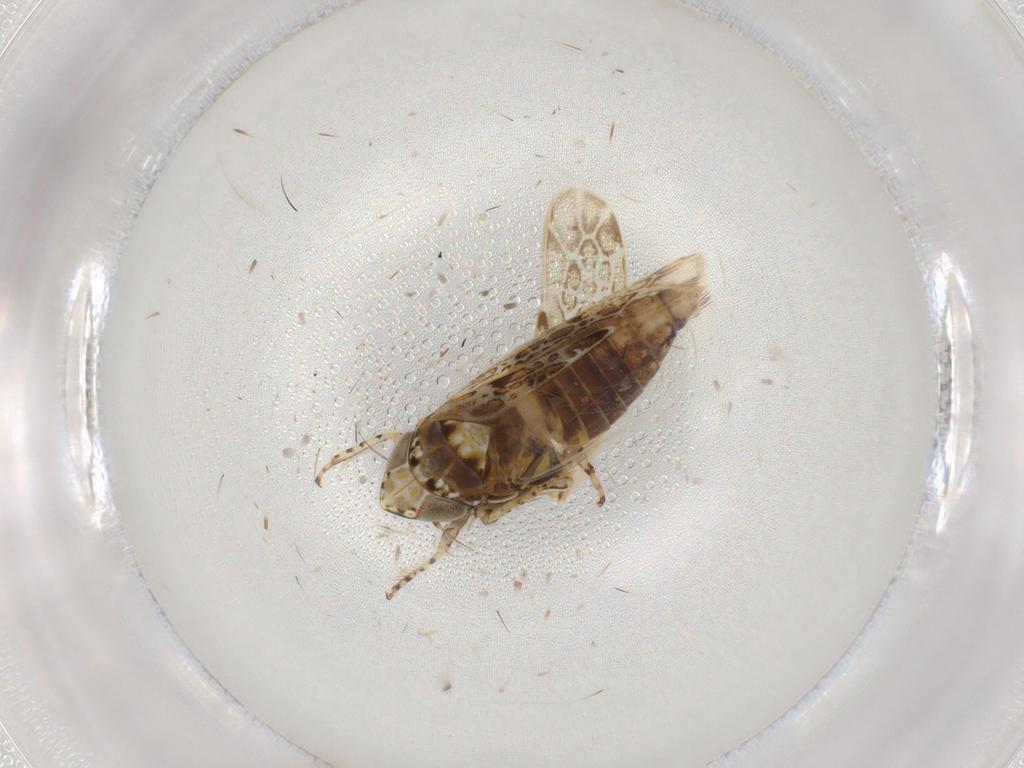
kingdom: Animalia
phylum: Arthropoda
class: Insecta
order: Hemiptera
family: Cicadellidae
